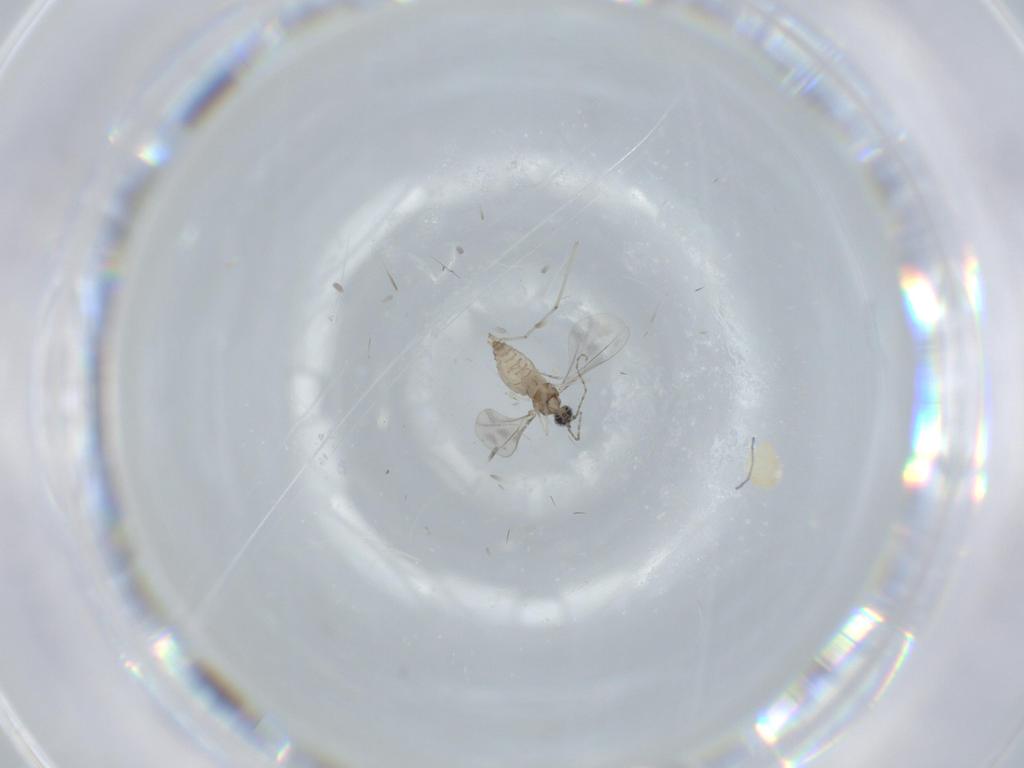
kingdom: Animalia
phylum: Arthropoda
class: Insecta
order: Diptera
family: Cecidomyiidae
